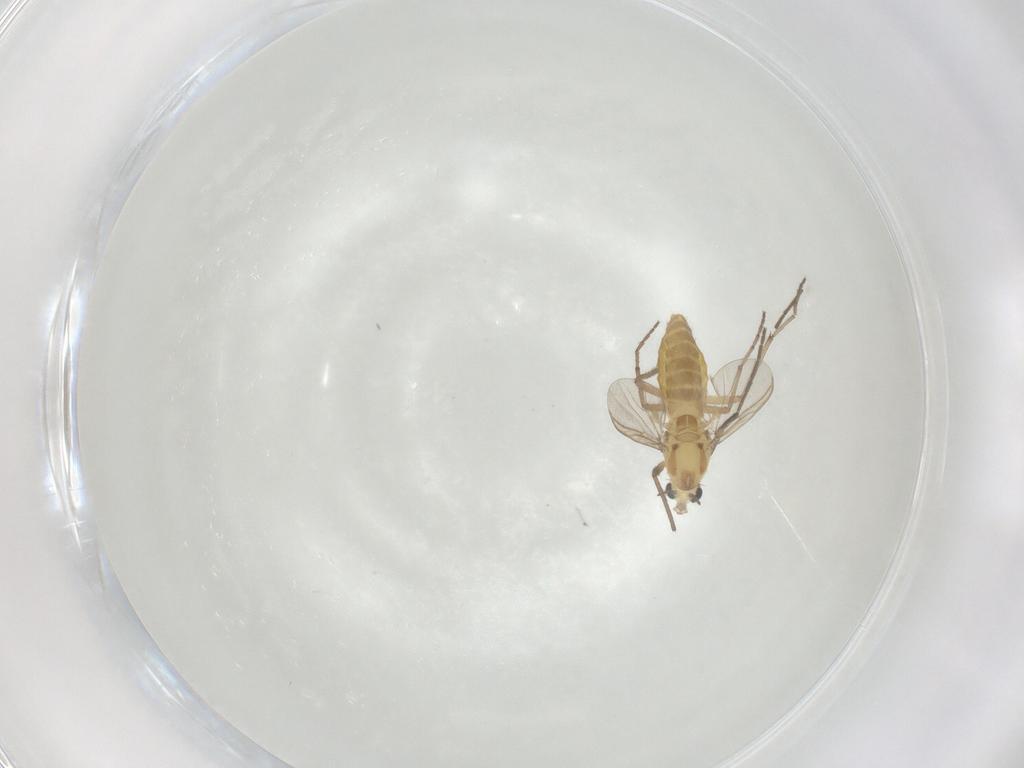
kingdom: Animalia
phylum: Arthropoda
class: Insecta
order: Diptera
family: Chironomidae
